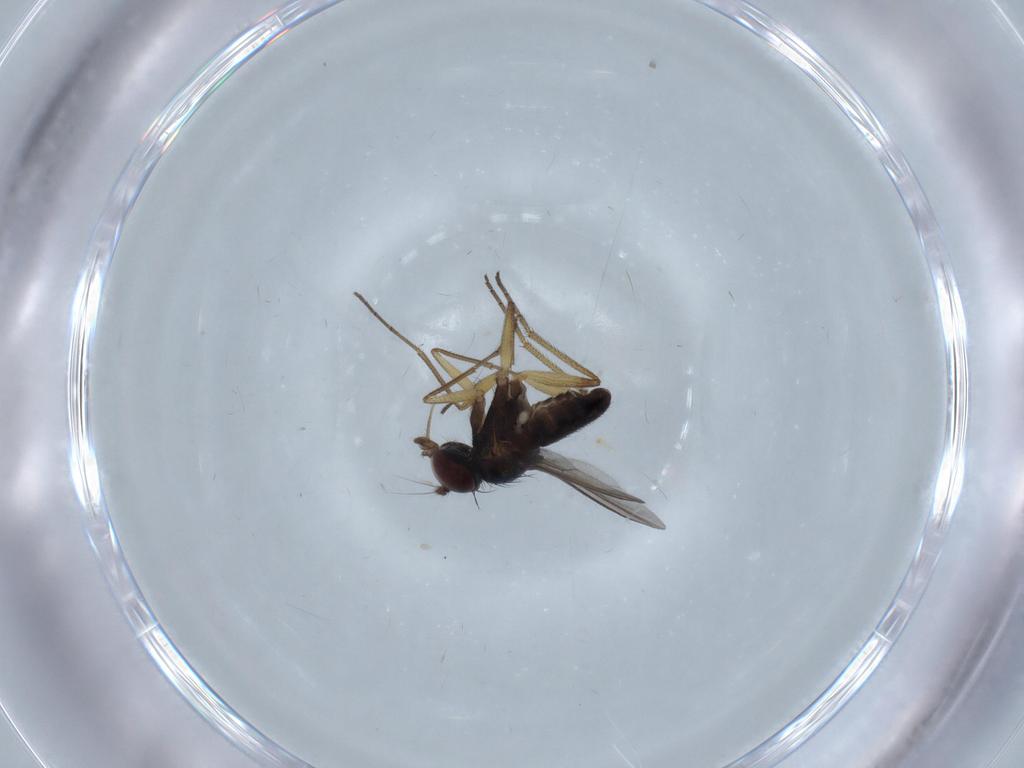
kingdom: Animalia
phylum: Arthropoda
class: Insecta
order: Diptera
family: Dolichopodidae
